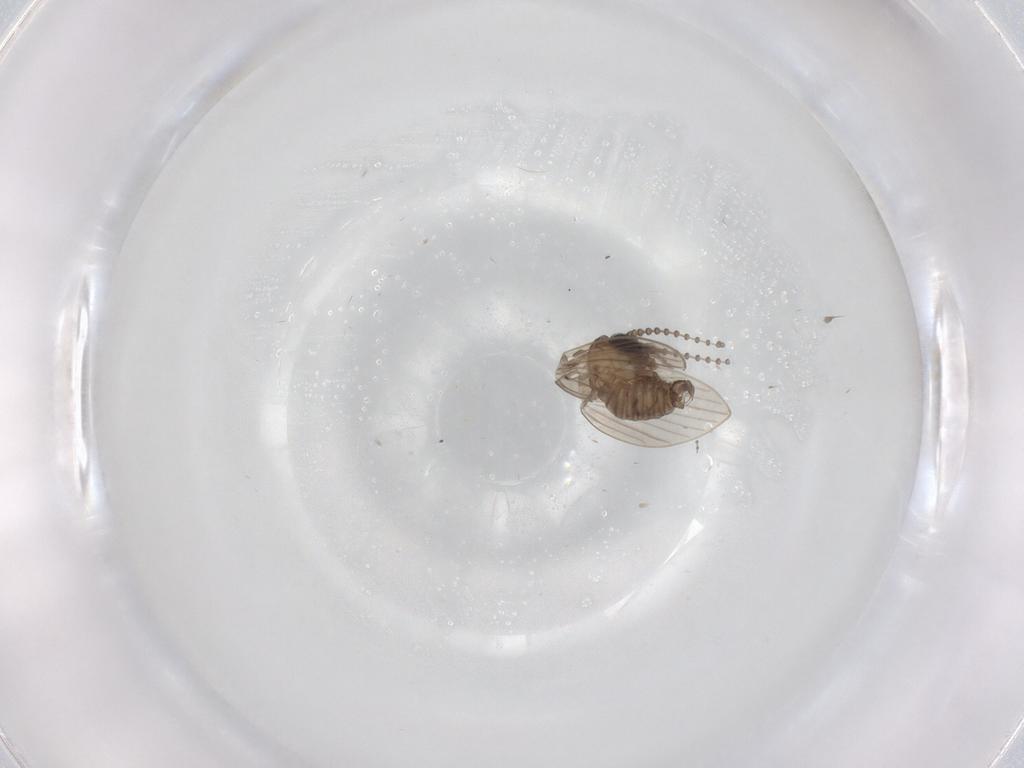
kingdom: Animalia
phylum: Arthropoda
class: Insecta
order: Diptera
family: Psychodidae
